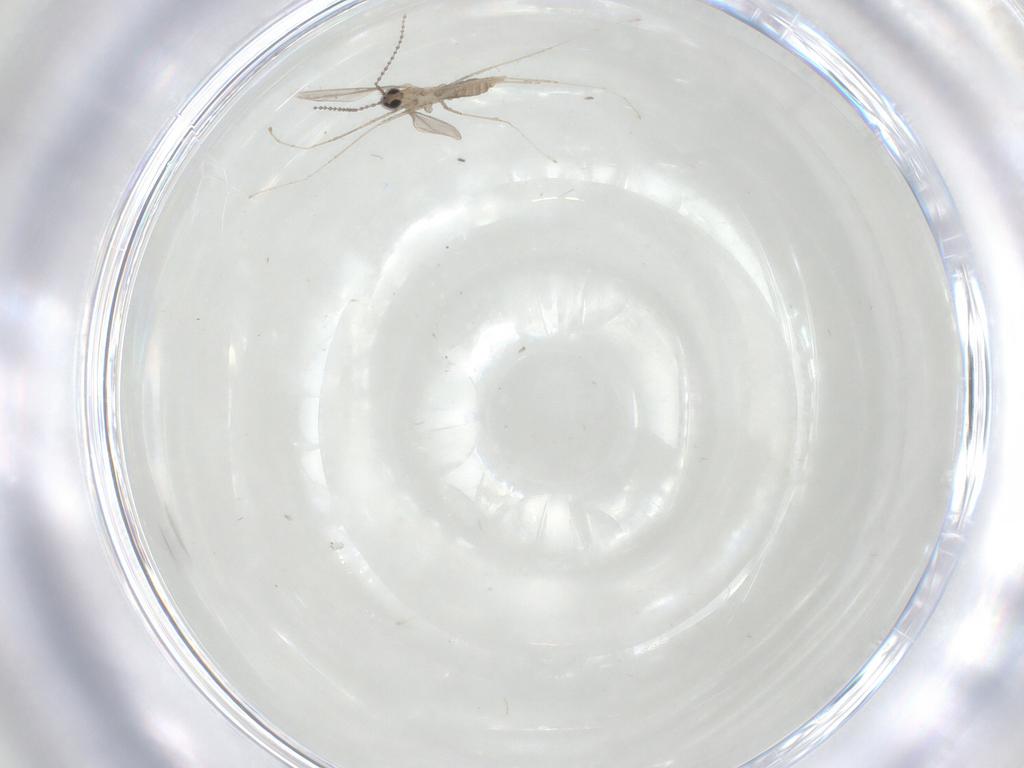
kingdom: Animalia
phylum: Arthropoda
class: Insecta
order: Diptera
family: Cecidomyiidae
